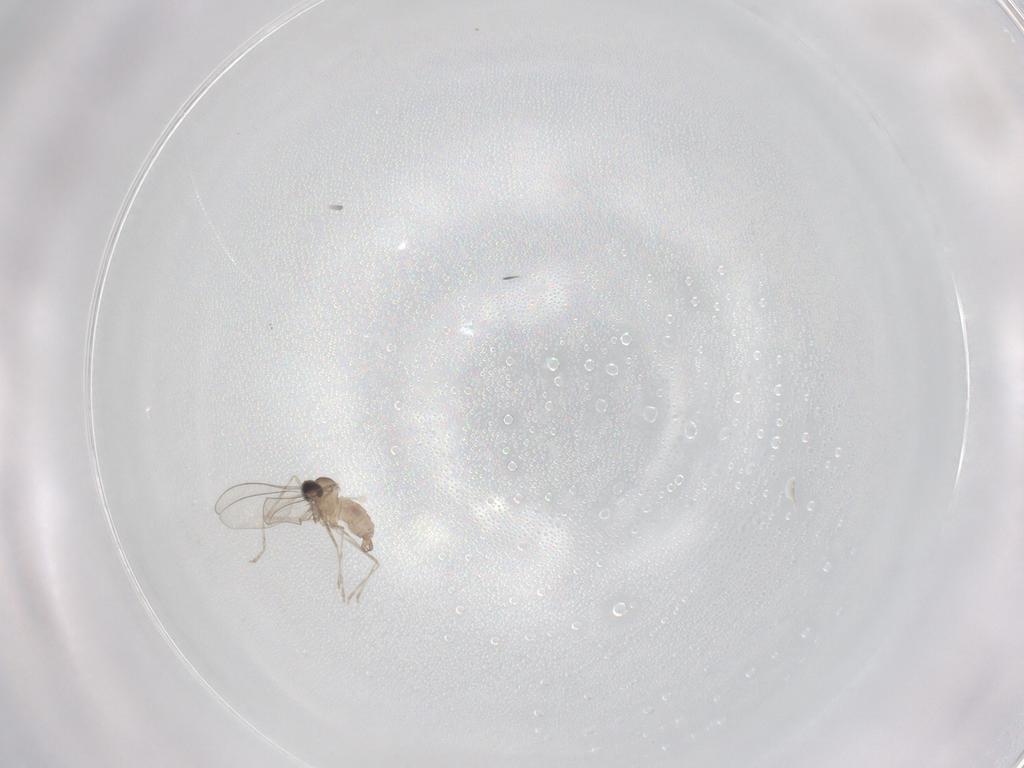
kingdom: Animalia
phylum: Arthropoda
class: Insecta
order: Diptera
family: Cecidomyiidae
